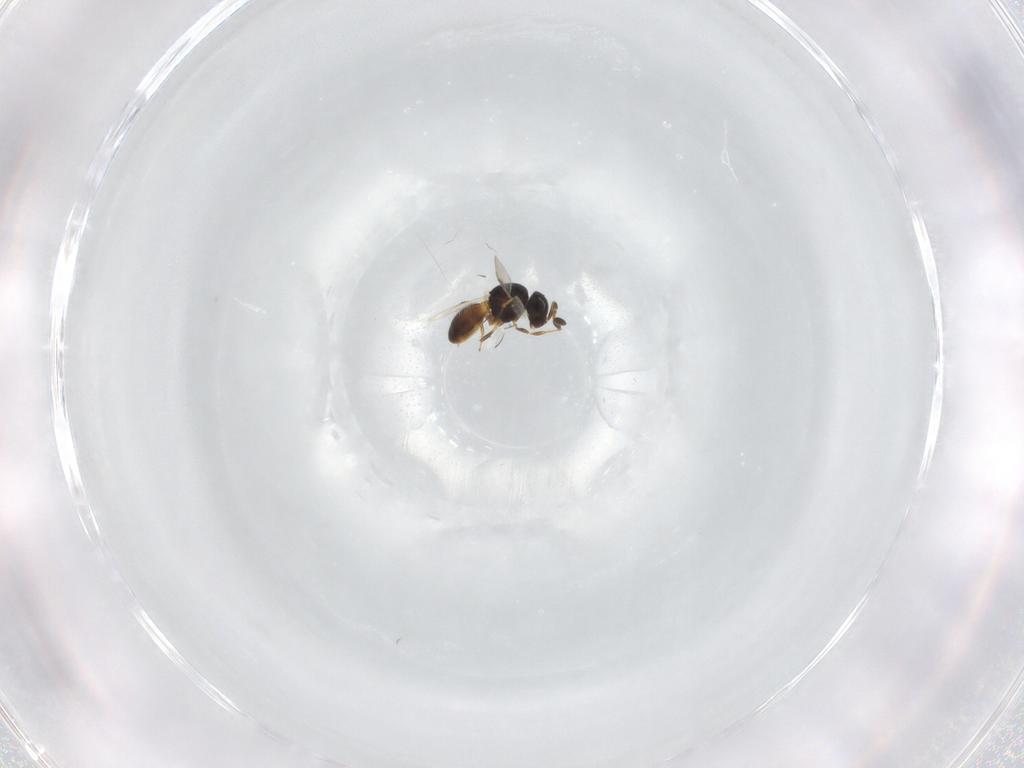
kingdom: Animalia
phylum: Arthropoda
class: Insecta
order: Hymenoptera
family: Scelionidae
